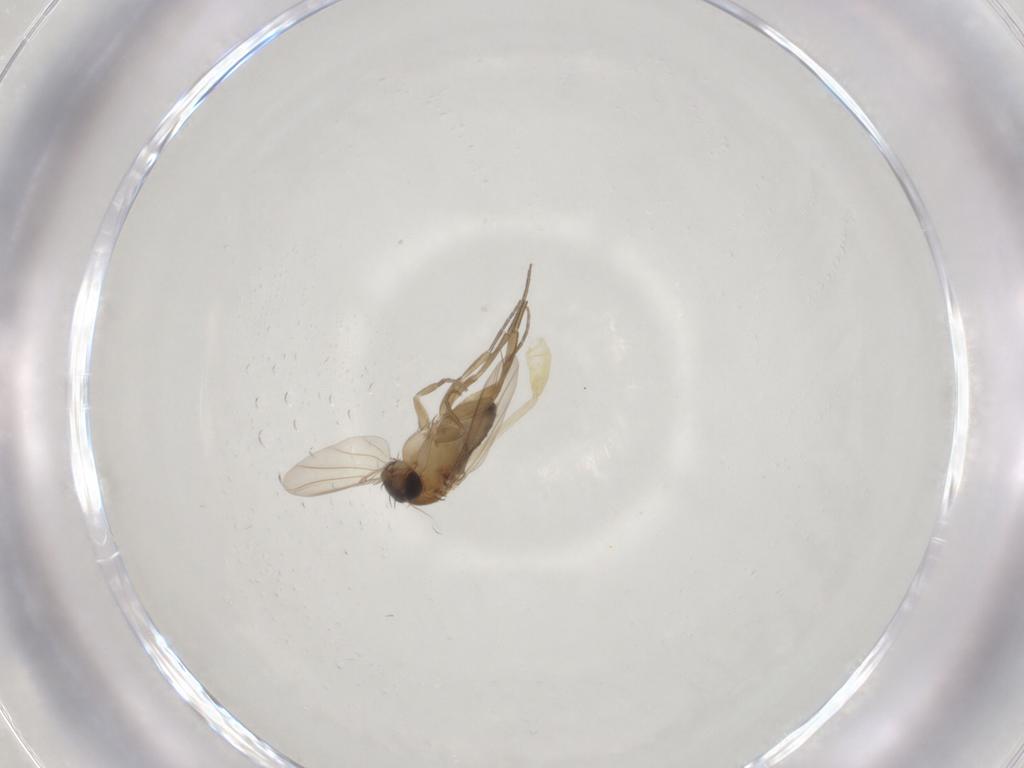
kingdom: Animalia
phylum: Arthropoda
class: Insecta
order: Diptera
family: Phoridae
